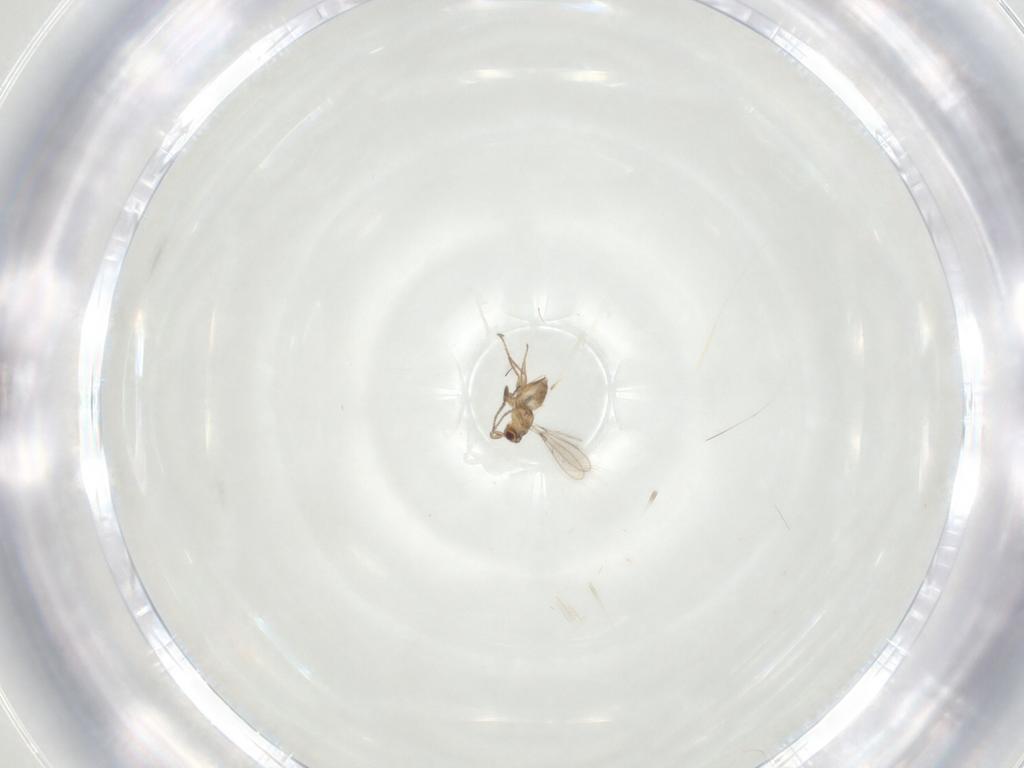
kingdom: Animalia
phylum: Arthropoda
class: Insecta
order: Hymenoptera
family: Mymaridae
